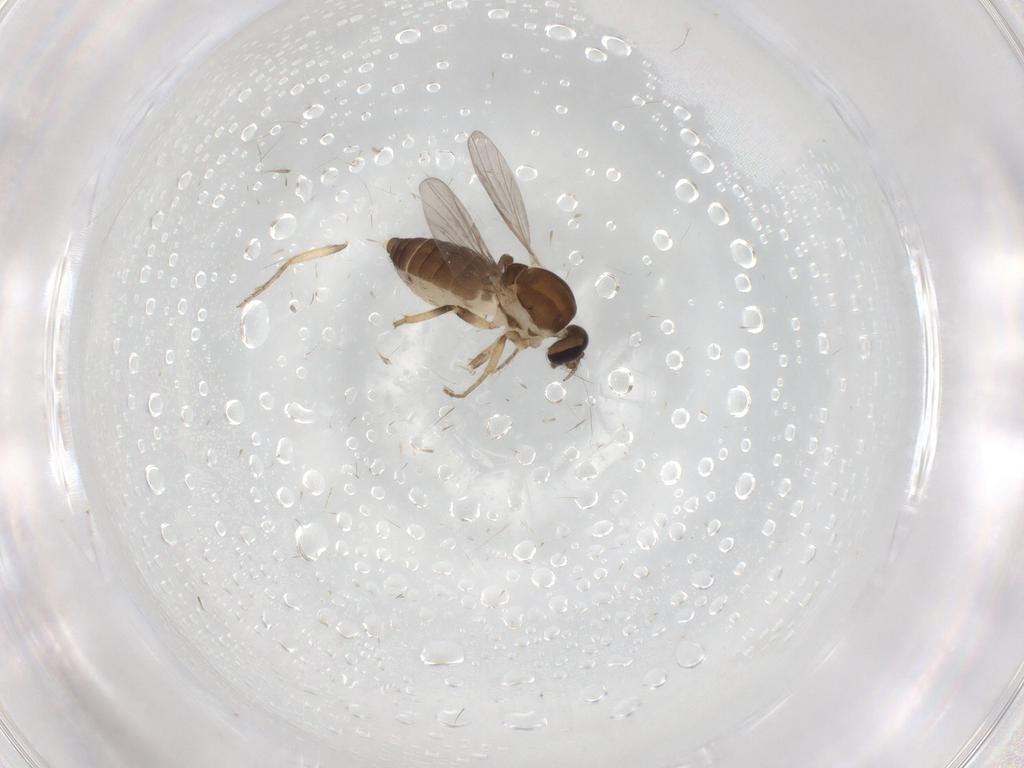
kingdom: Animalia
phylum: Arthropoda
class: Insecta
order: Diptera
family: Ceratopogonidae
